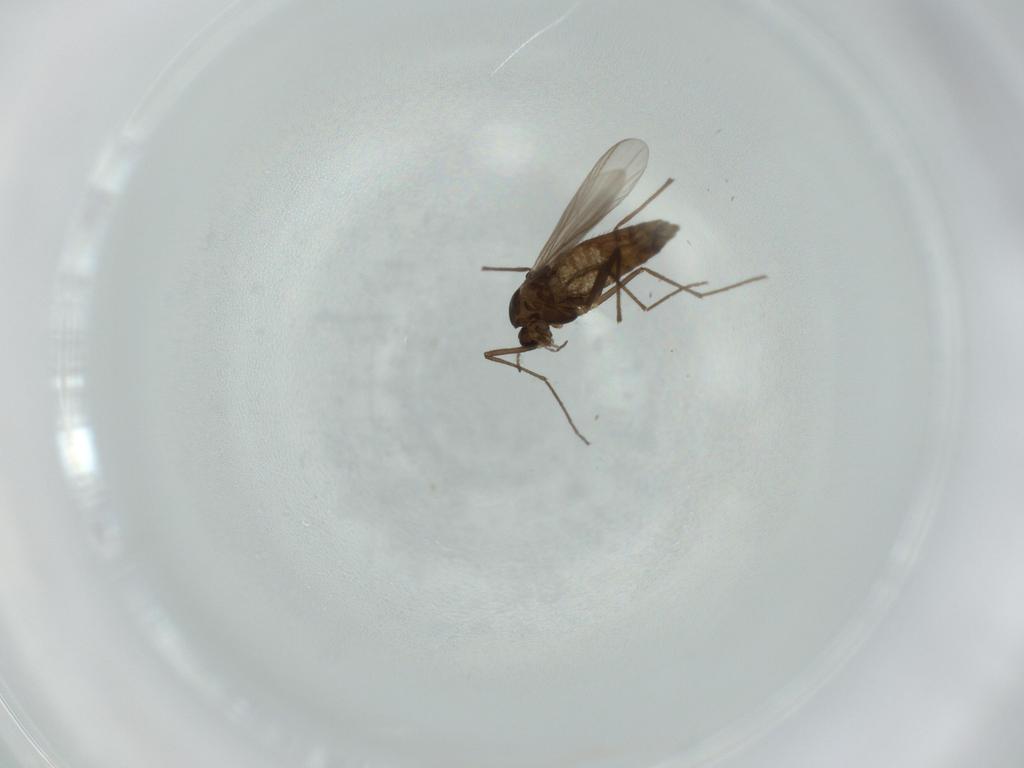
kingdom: Animalia
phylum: Arthropoda
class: Insecta
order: Diptera
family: Chironomidae
